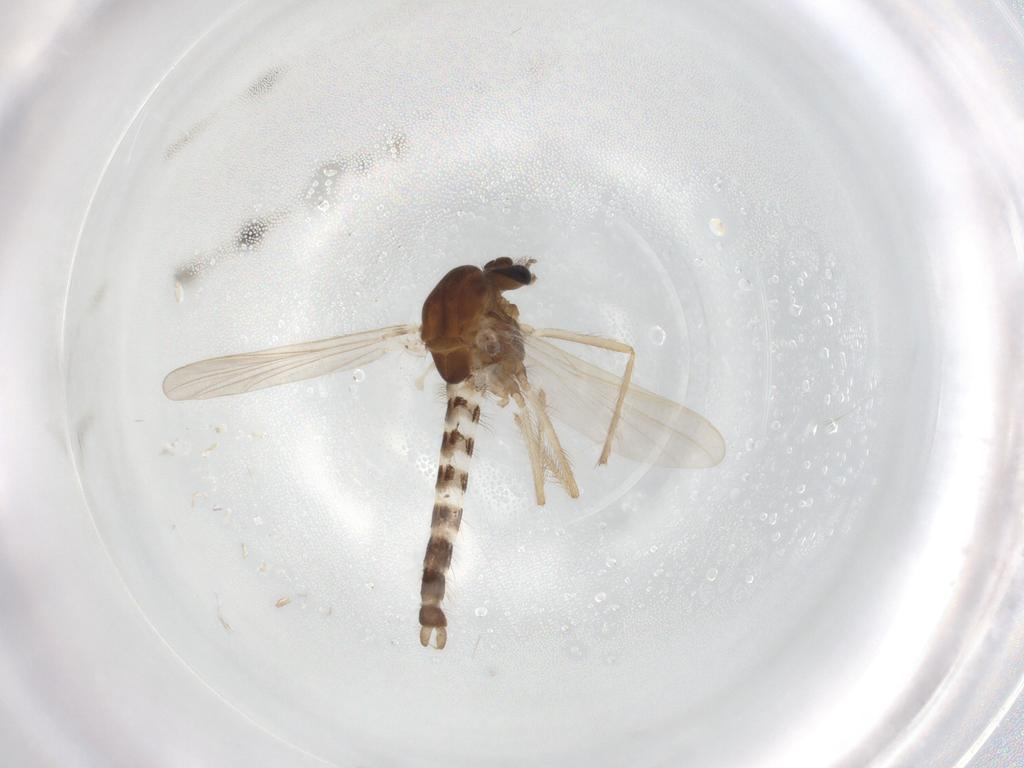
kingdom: Animalia
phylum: Arthropoda
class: Insecta
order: Diptera
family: Chironomidae
